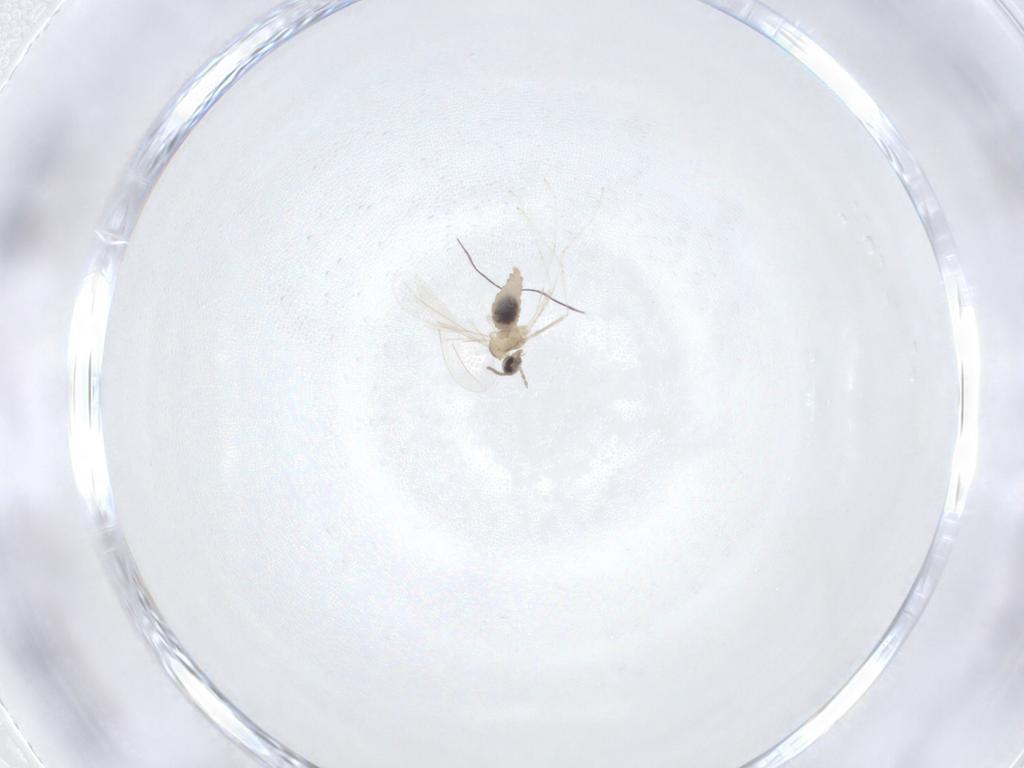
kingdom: Animalia
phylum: Arthropoda
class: Insecta
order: Diptera
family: Cecidomyiidae
